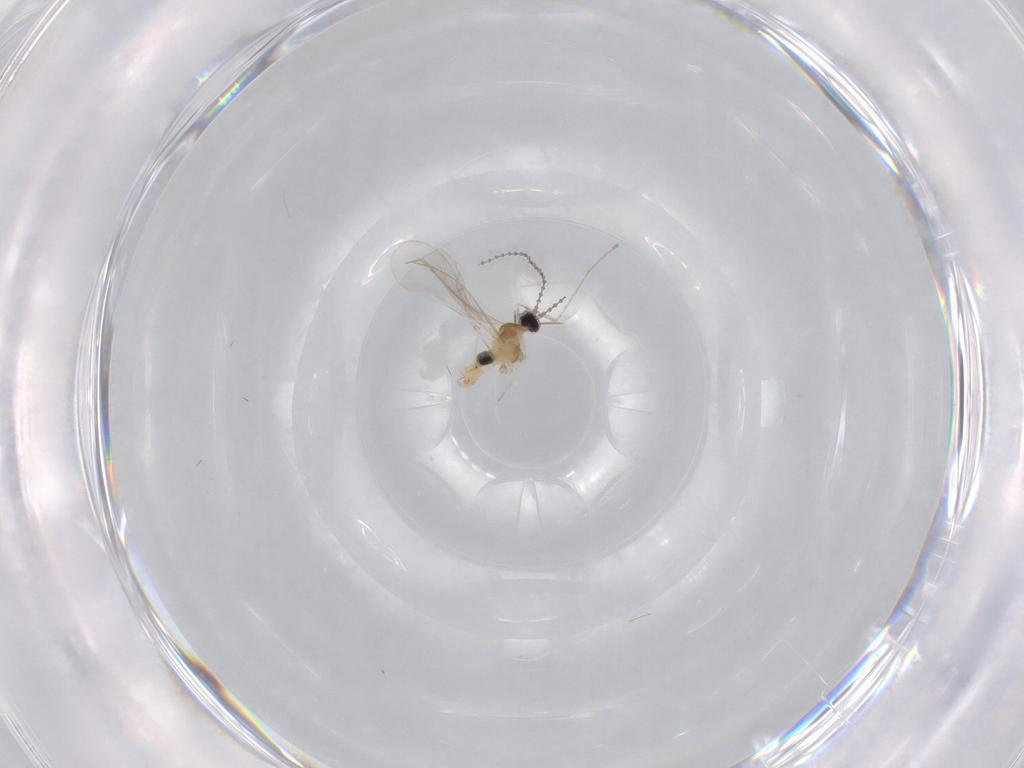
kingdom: Animalia
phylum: Arthropoda
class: Insecta
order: Diptera
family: Cecidomyiidae
